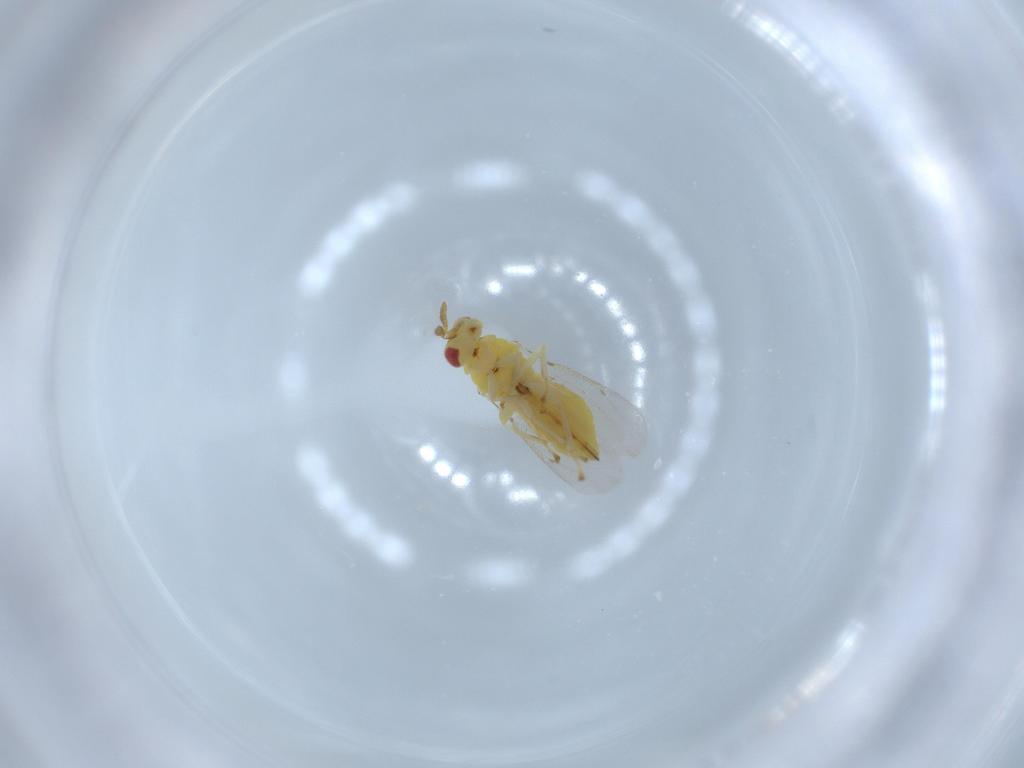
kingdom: Animalia
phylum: Arthropoda
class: Insecta
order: Hymenoptera
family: Eulophidae
